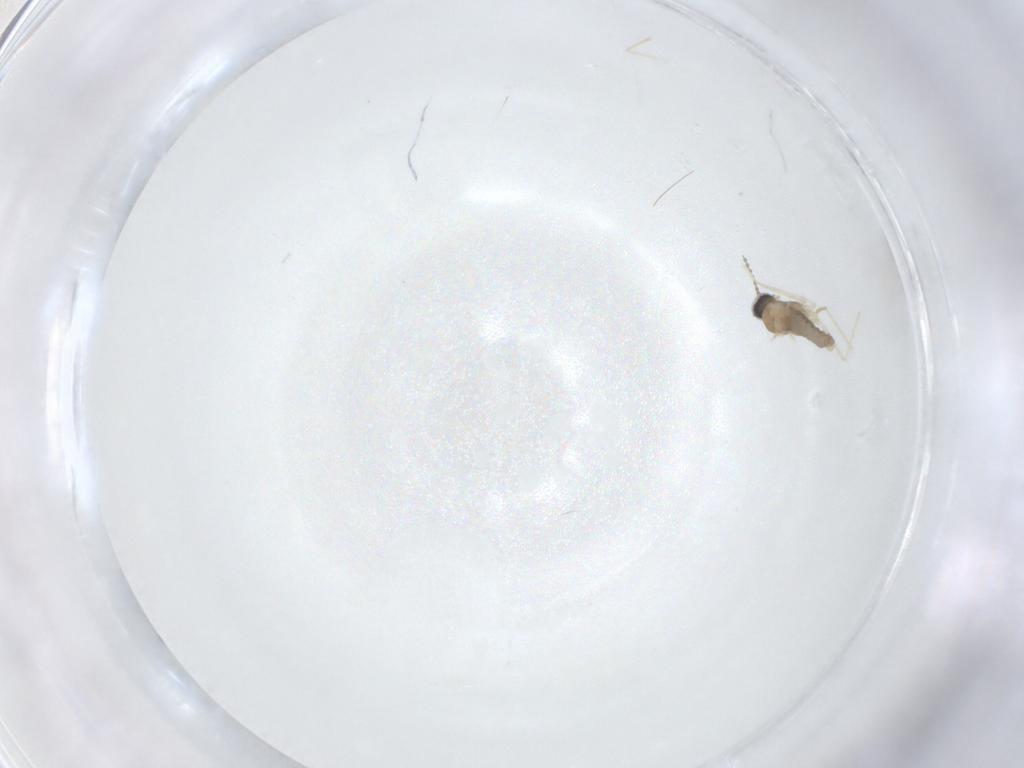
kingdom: Animalia
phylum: Arthropoda
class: Insecta
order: Diptera
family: Cecidomyiidae
